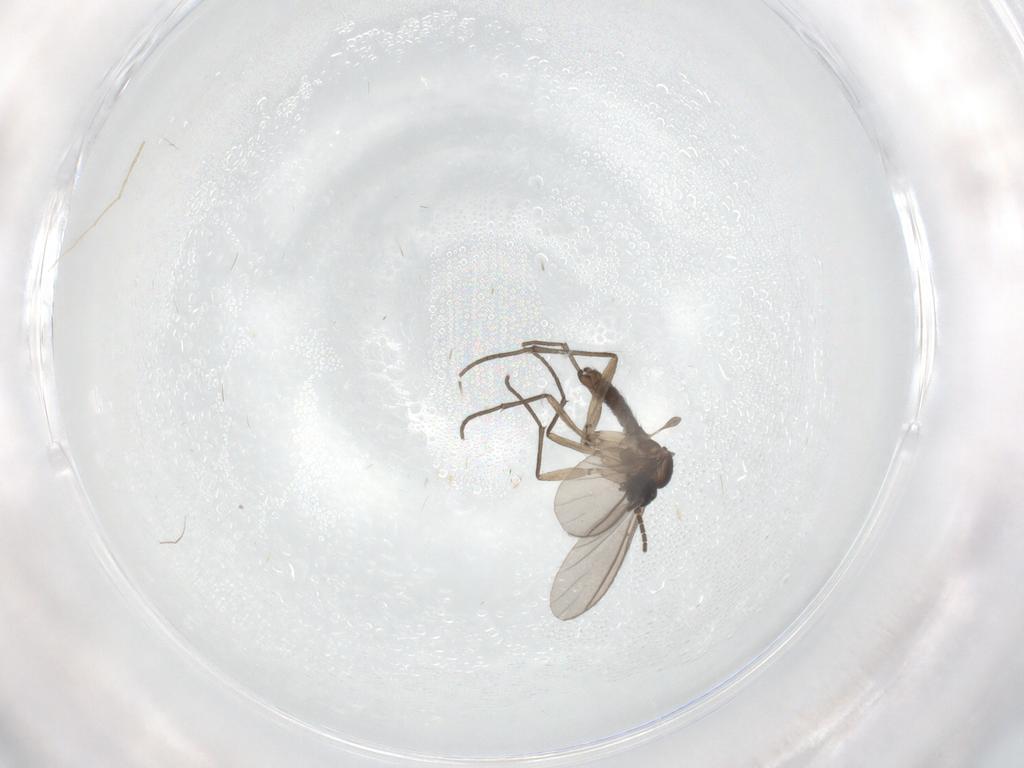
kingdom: Animalia
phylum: Arthropoda
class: Insecta
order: Diptera
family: Sciaridae
